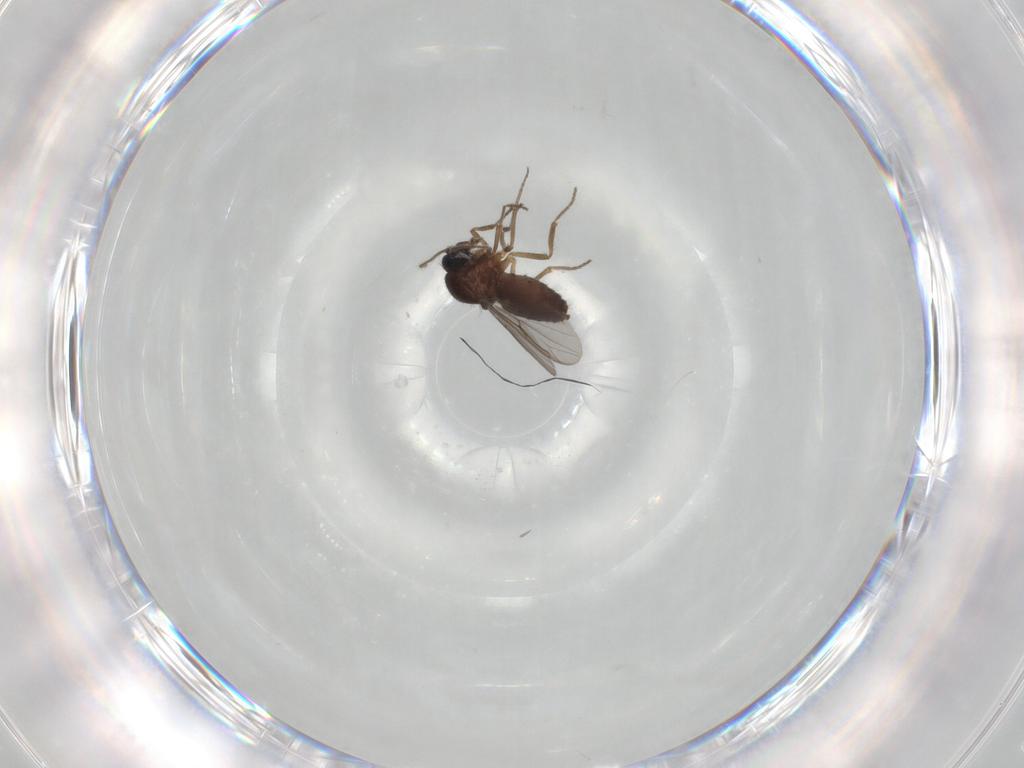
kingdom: Animalia
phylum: Arthropoda
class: Insecta
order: Diptera
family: Ceratopogonidae
